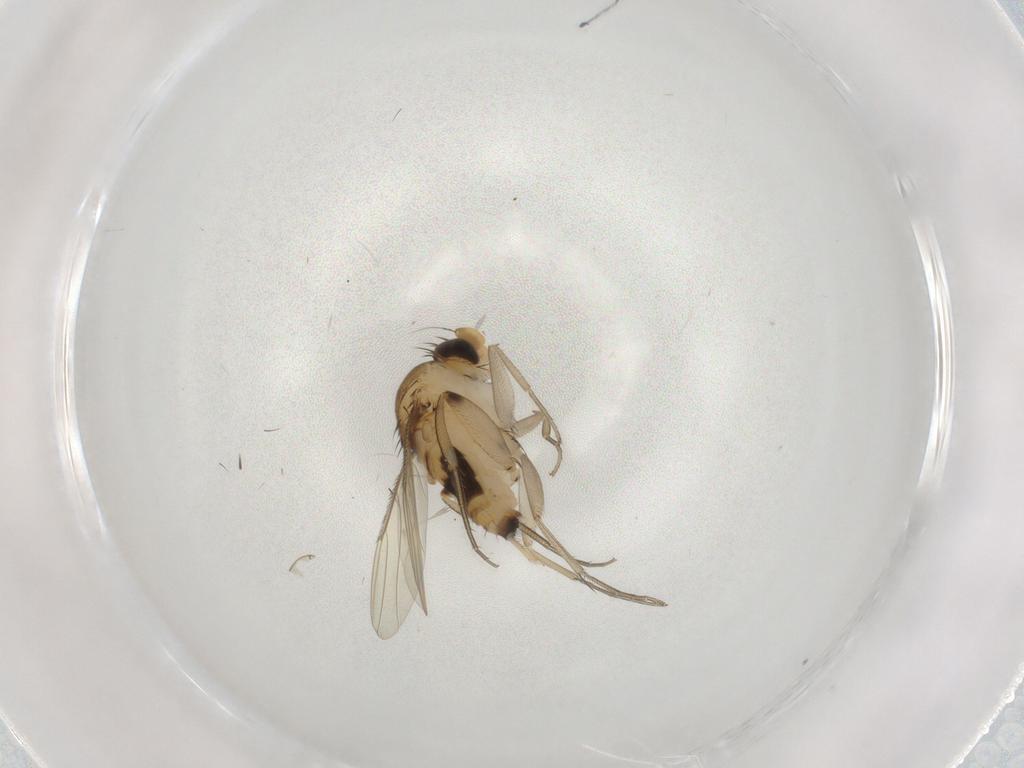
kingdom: Animalia
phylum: Arthropoda
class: Insecta
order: Diptera
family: Phoridae
